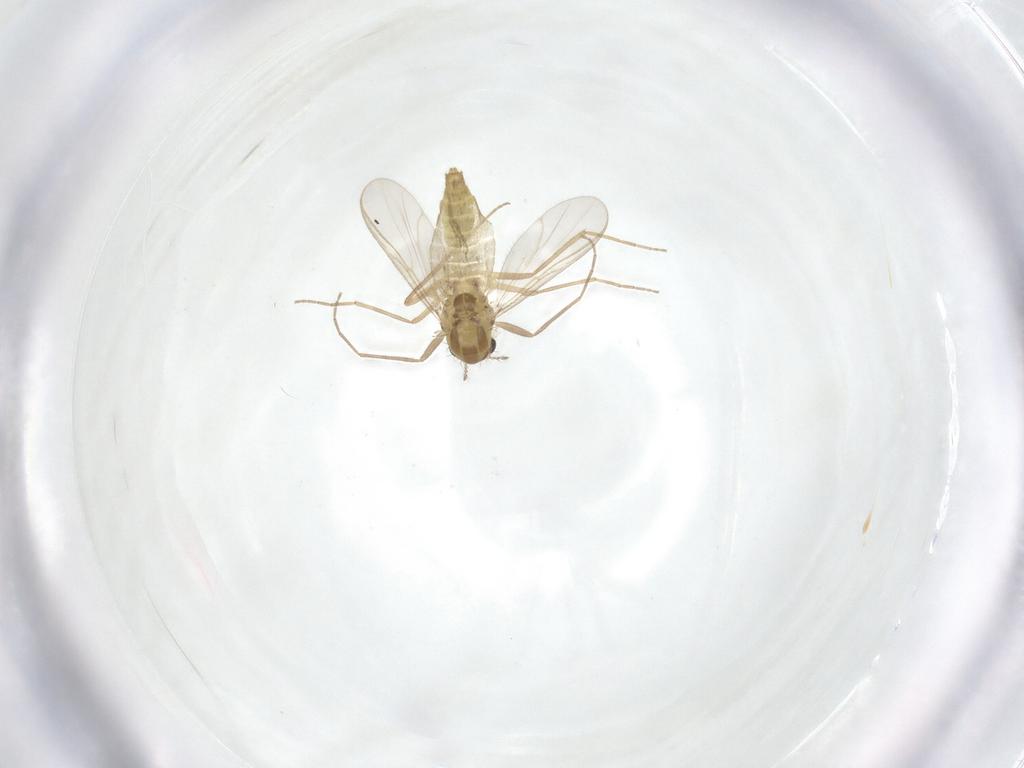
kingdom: Animalia
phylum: Arthropoda
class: Insecta
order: Diptera
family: Chironomidae
